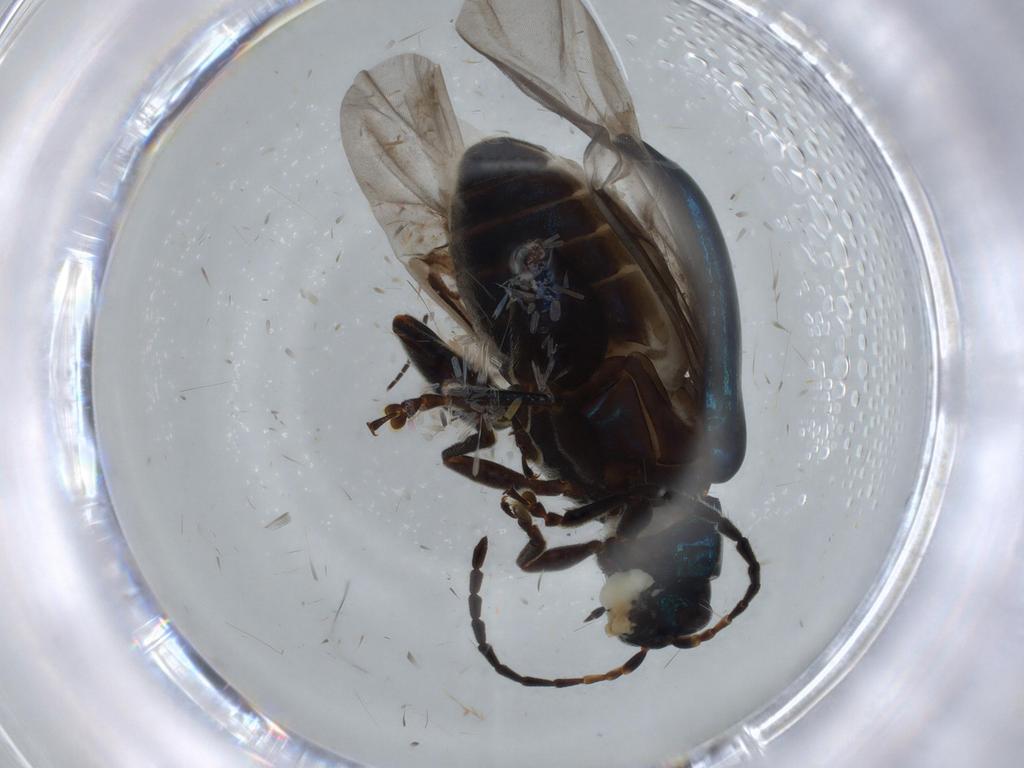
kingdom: Animalia
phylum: Arthropoda
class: Insecta
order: Coleoptera
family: Chrysomelidae
